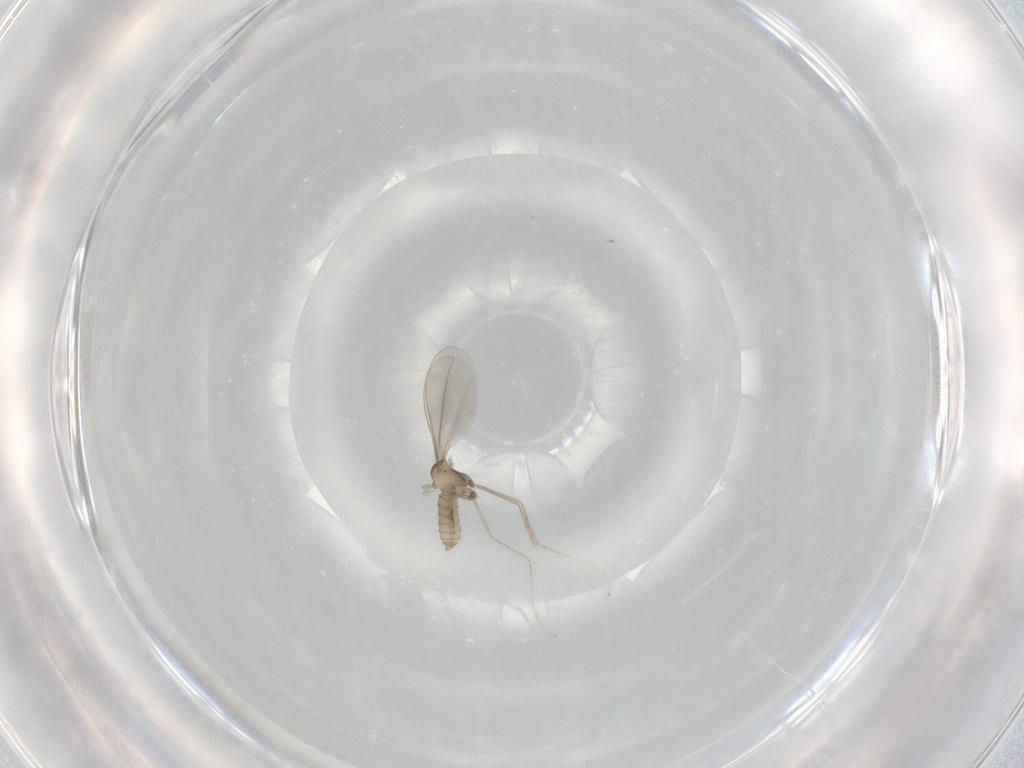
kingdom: Animalia
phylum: Arthropoda
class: Insecta
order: Diptera
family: Cecidomyiidae
